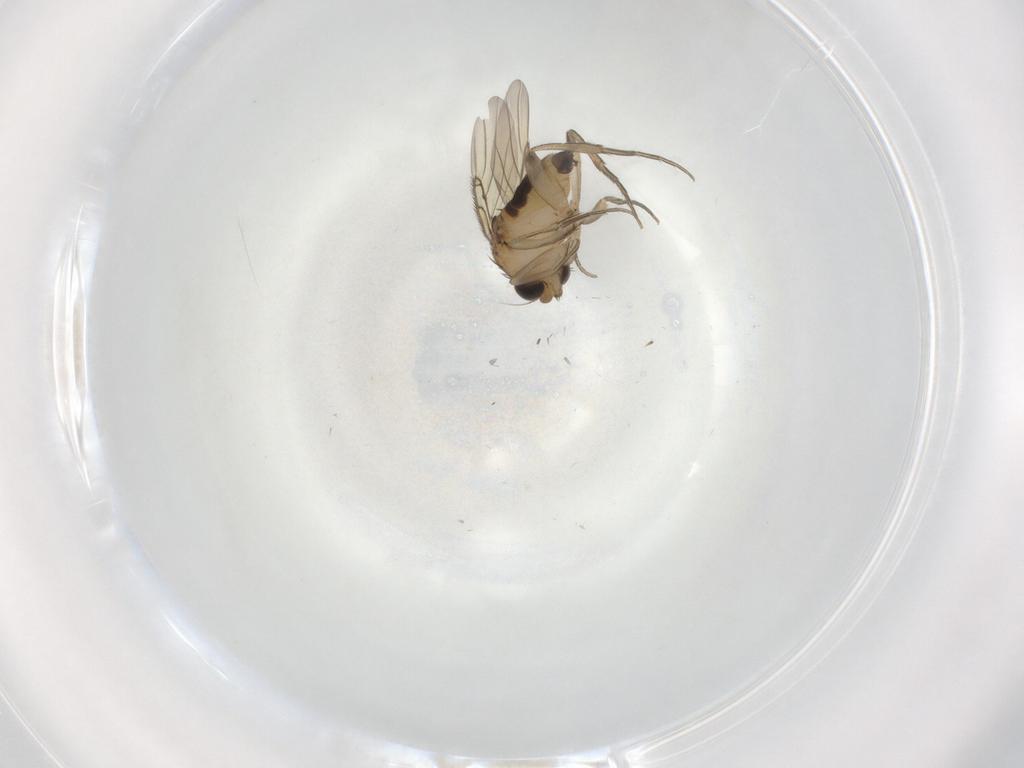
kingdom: Animalia
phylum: Arthropoda
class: Insecta
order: Diptera
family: Phoridae
